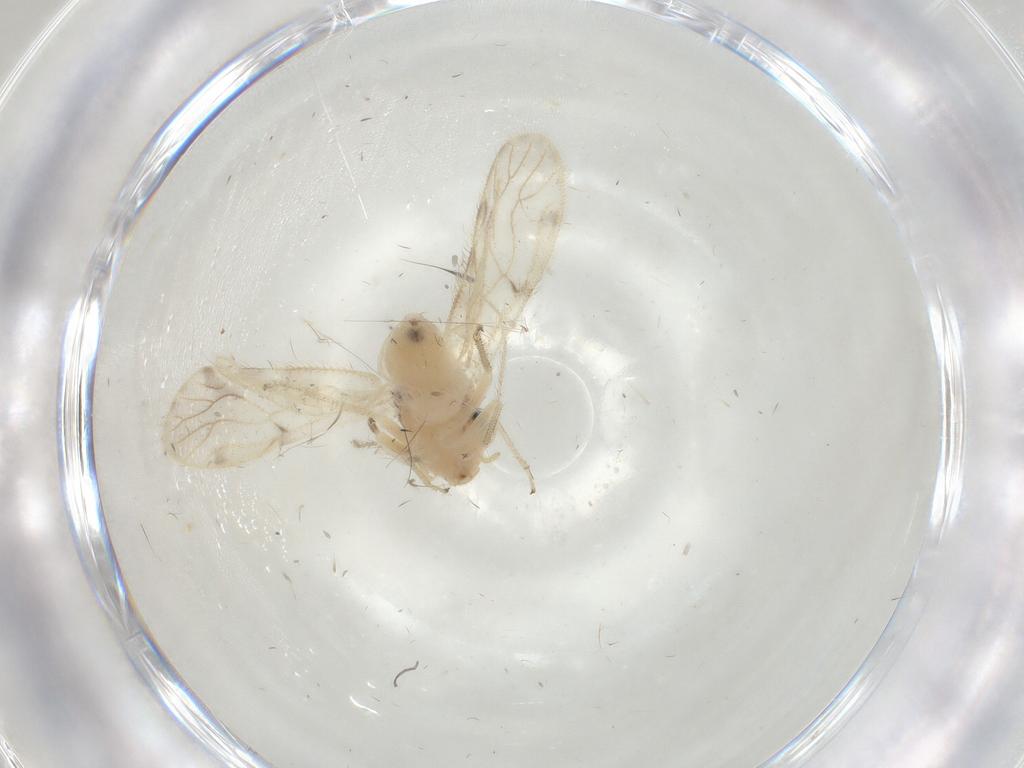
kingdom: Animalia
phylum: Arthropoda
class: Insecta
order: Psocodea
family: Pseudocaeciliidae
